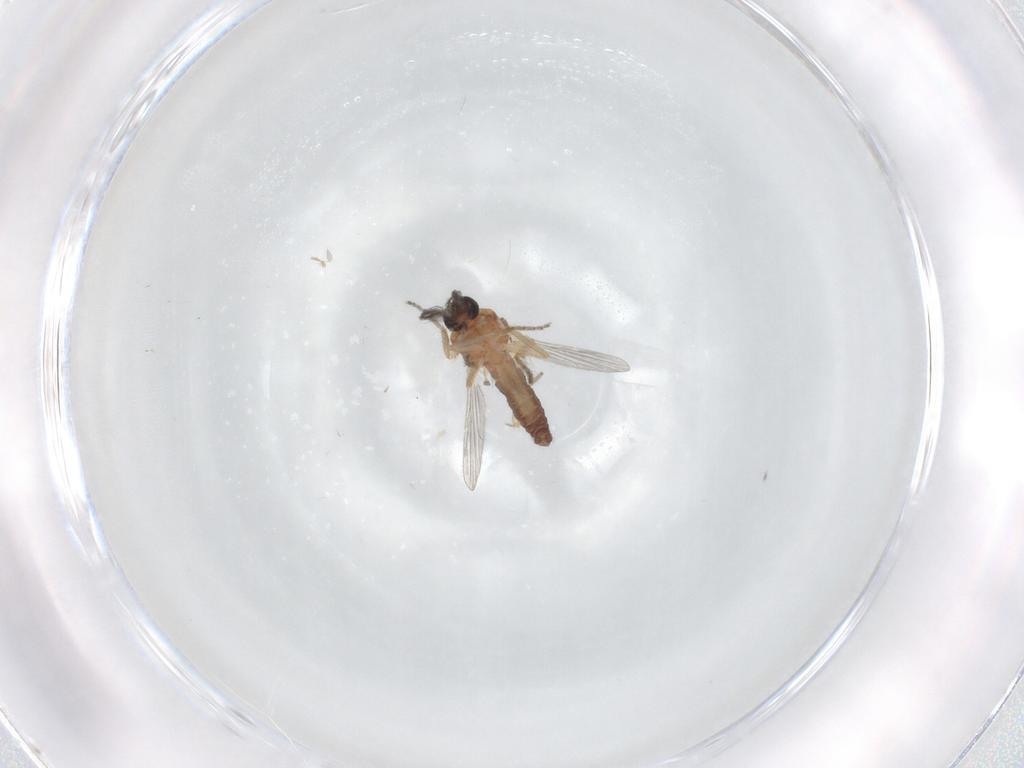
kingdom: Animalia
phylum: Arthropoda
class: Insecta
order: Diptera
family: Ceratopogonidae
